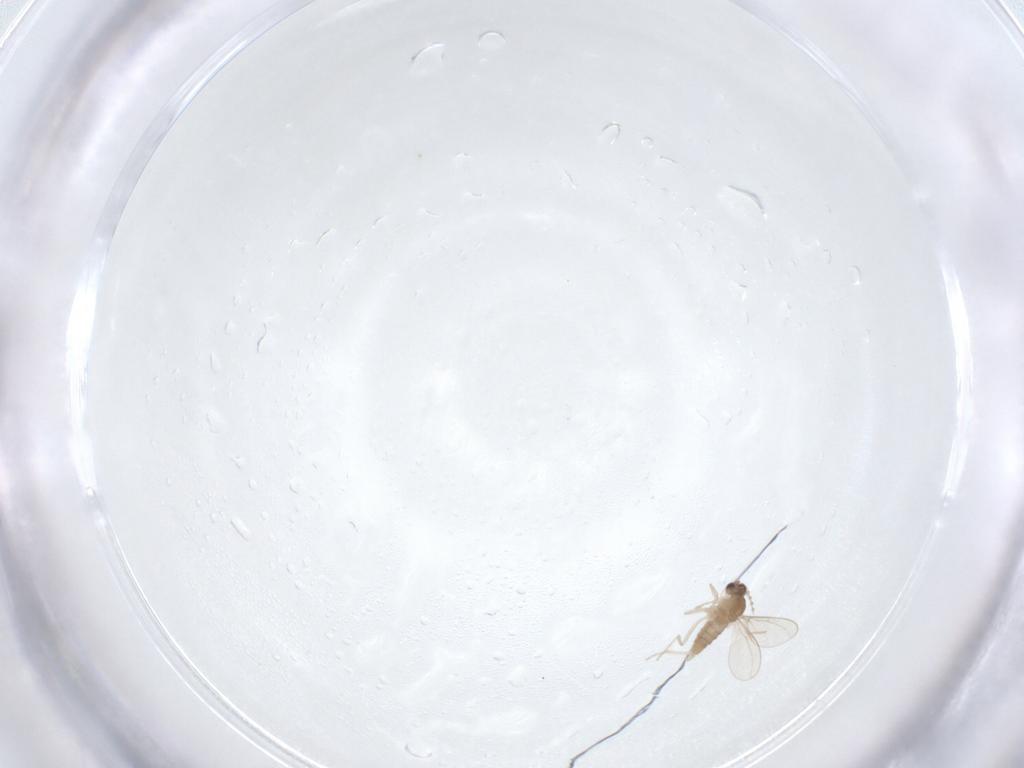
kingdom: Animalia
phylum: Arthropoda
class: Insecta
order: Diptera
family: Cecidomyiidae
